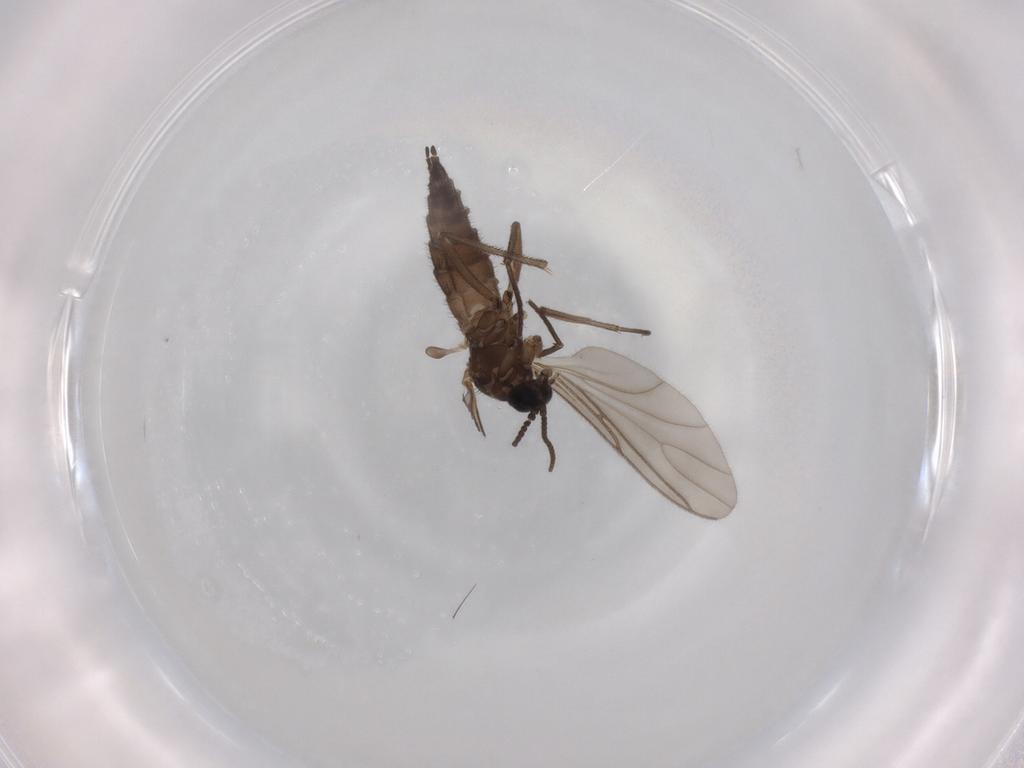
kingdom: Animalia
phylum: Arthropoda
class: Insecta
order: Diptera
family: Sciaridae
